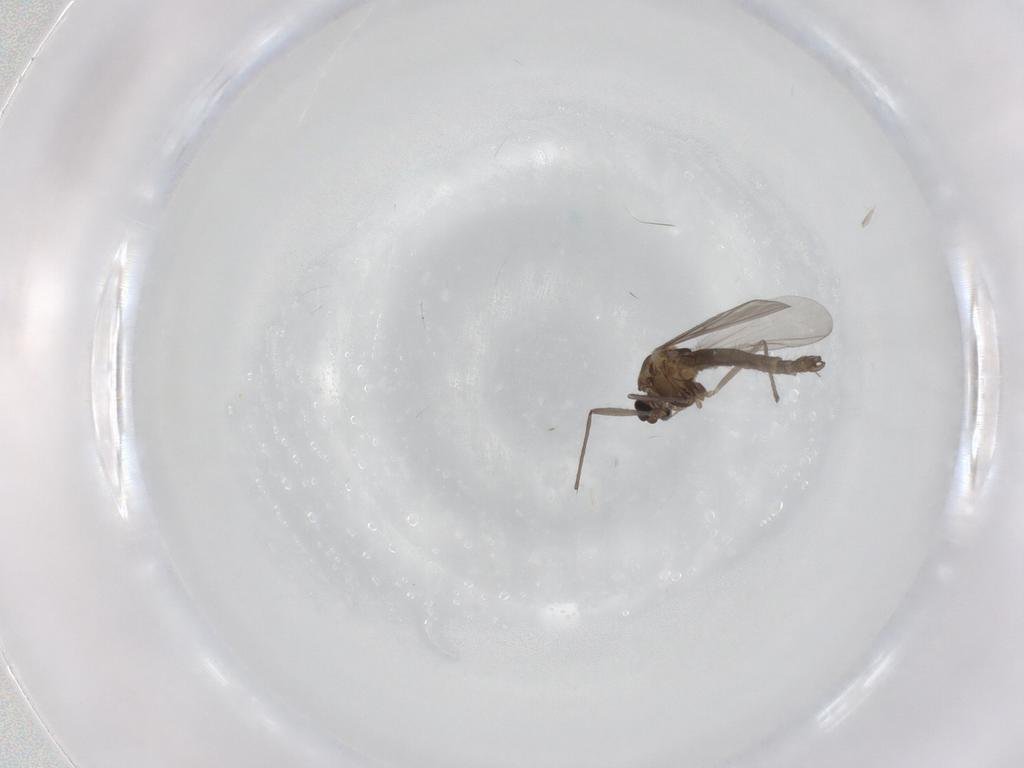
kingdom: Animalia
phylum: Arthropoda
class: Insecta
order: Diptera
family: Chironomidae
